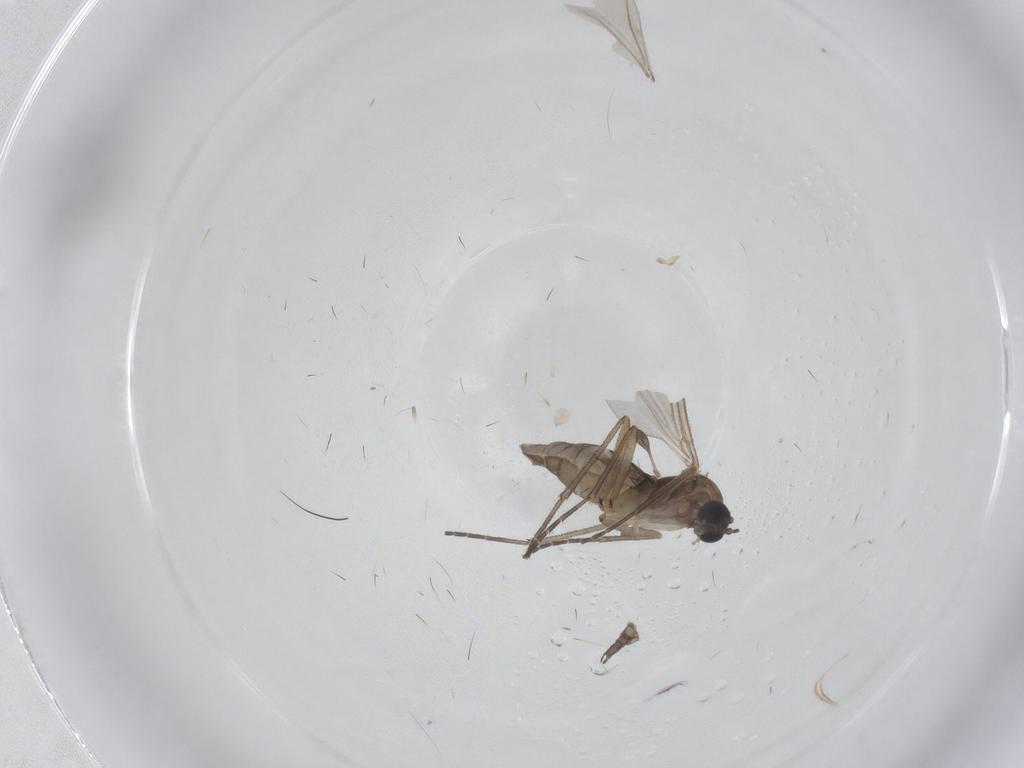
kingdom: Animalia
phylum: Arthropoda
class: Insecta
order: Diptera
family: Sciaridae
